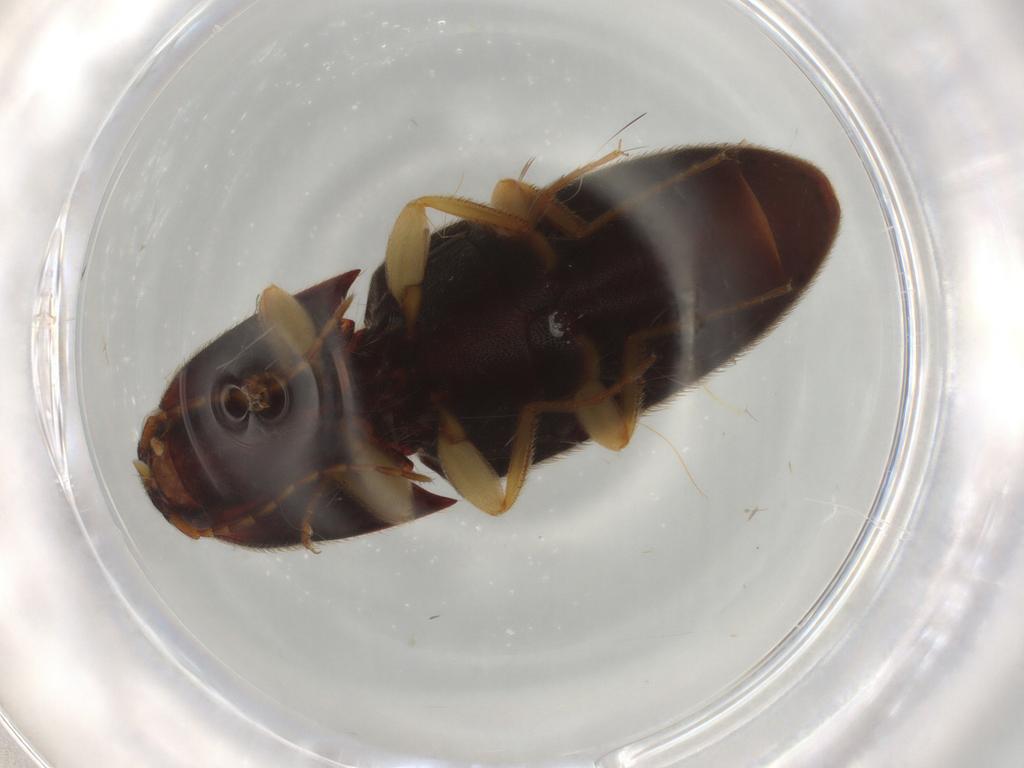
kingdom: Animalia
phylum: Arthropoda
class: Insecta
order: Coleoptera
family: Elateridae
